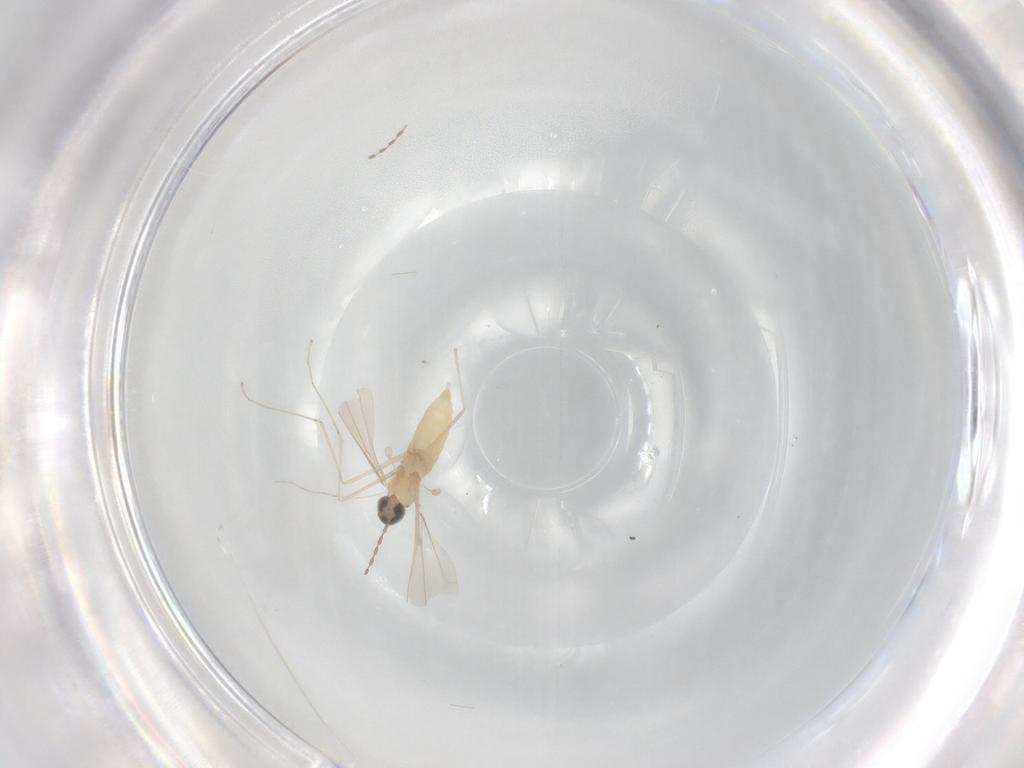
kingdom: Animalia
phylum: Arthropoda
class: Insecta
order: Diptera
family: Cecidomyiidae
